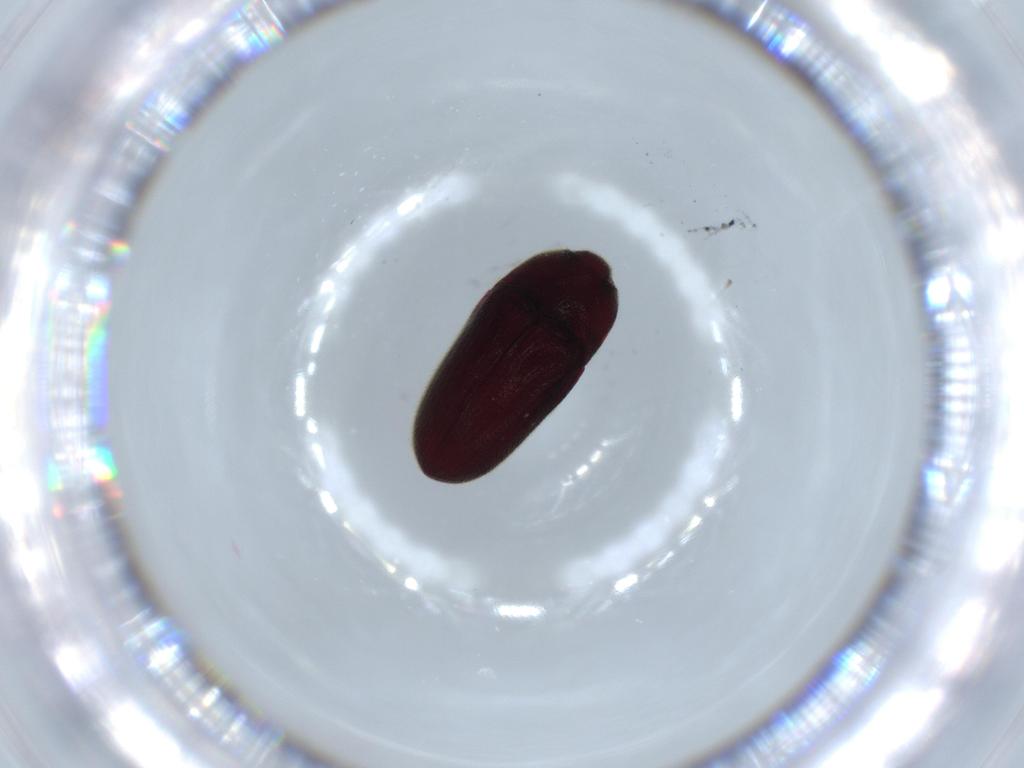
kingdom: Animalia
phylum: Arthropoda
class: Insecta
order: Coleoptera
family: Throscidae
